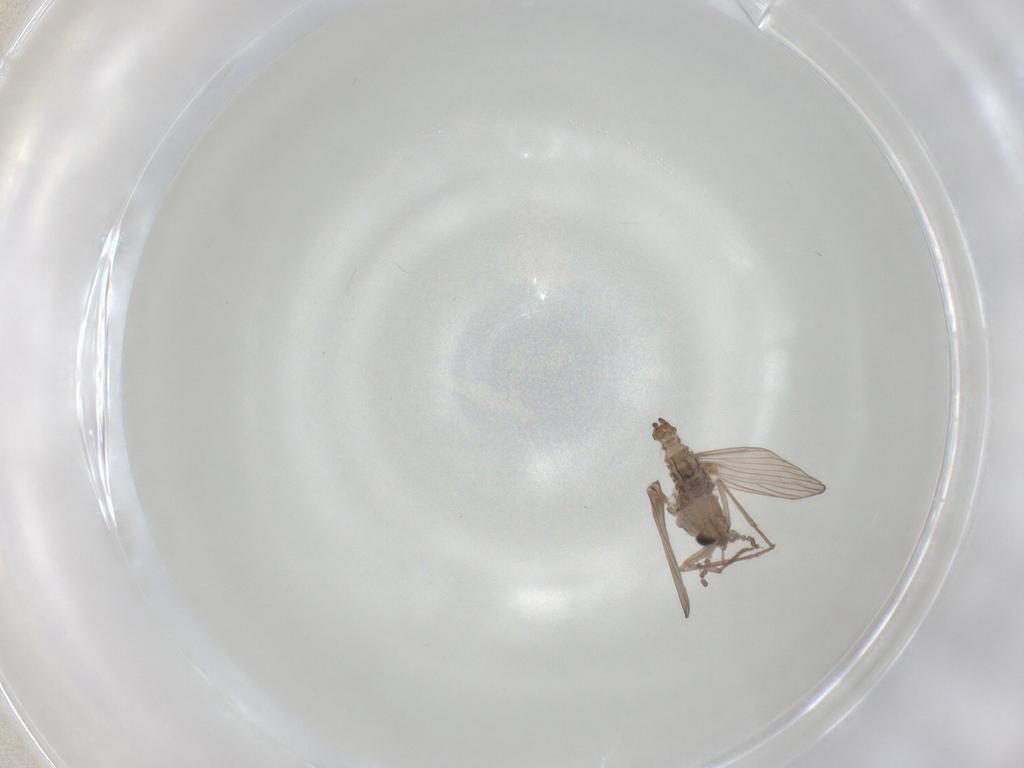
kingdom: Animalia
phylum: Arthropoda
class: Insecta
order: Diptera
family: Psychodidae
